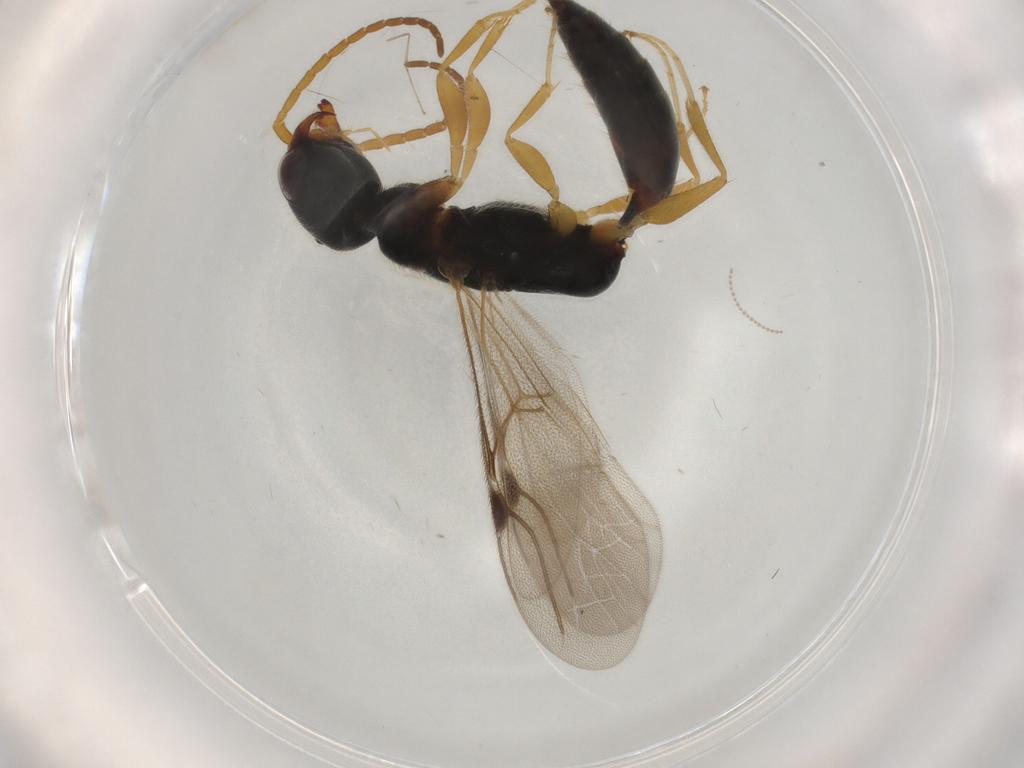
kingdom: Animalia
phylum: Arthropoda
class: Insecta
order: Hymenoptera
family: Bethylidae
